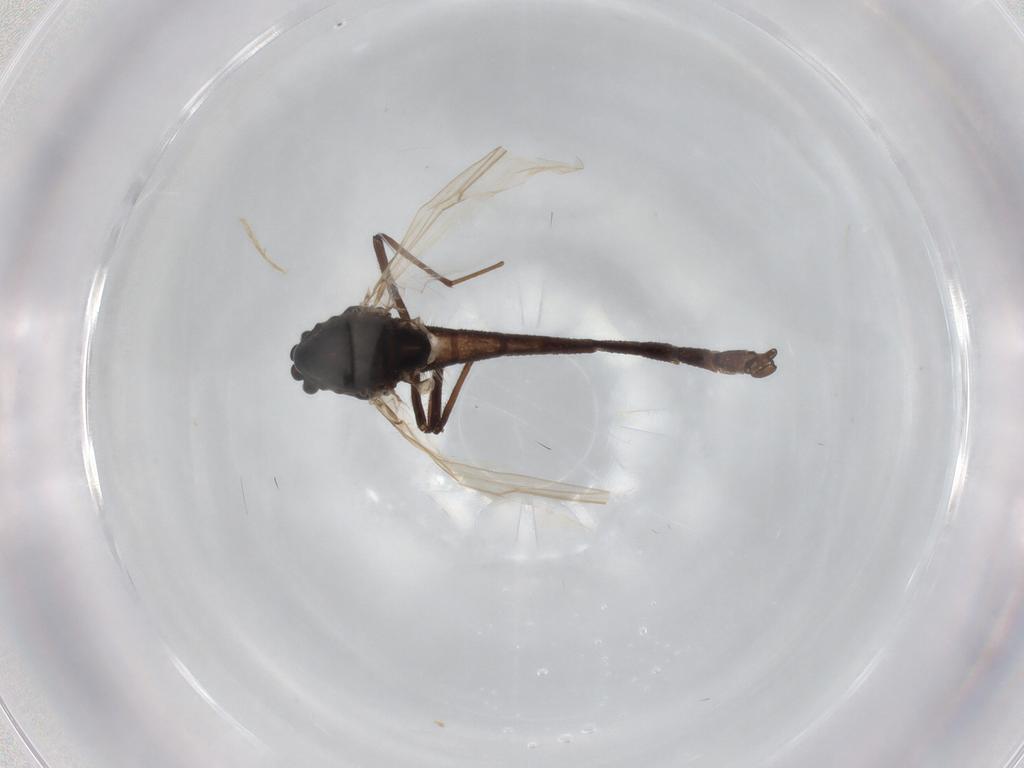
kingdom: Animalia
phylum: Arthropoda
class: Insecta
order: Diptera
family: Chironomidae
